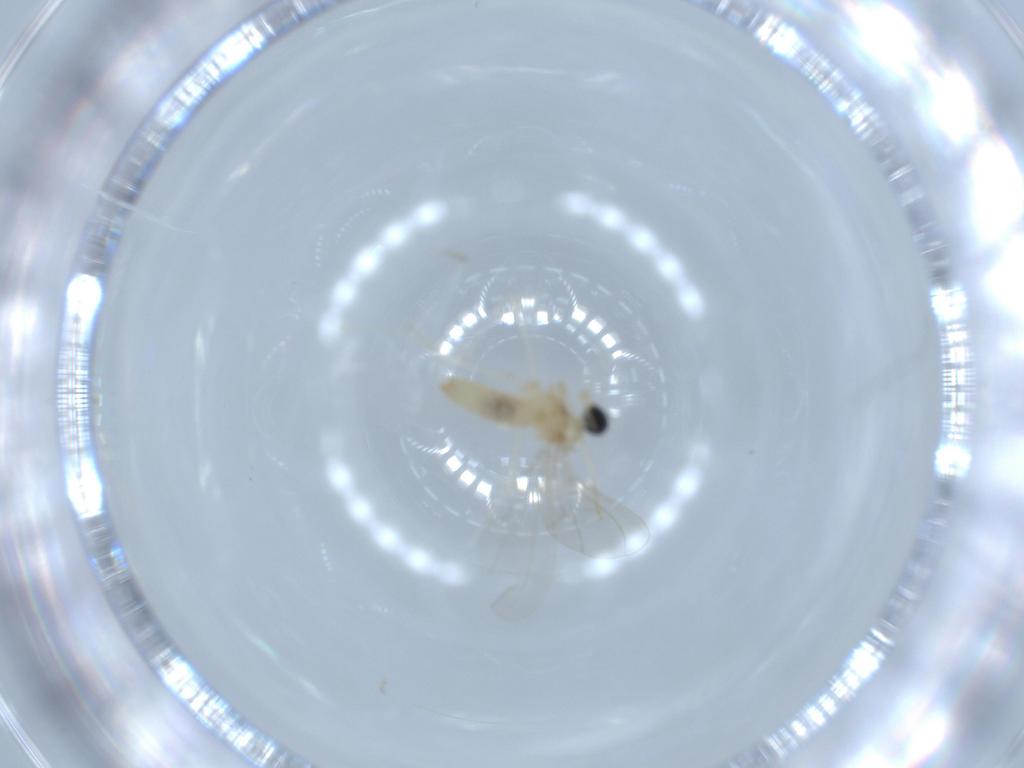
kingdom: Animalia
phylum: Arthropoda
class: Insecta
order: Diptera
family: Cecidomyiidae
